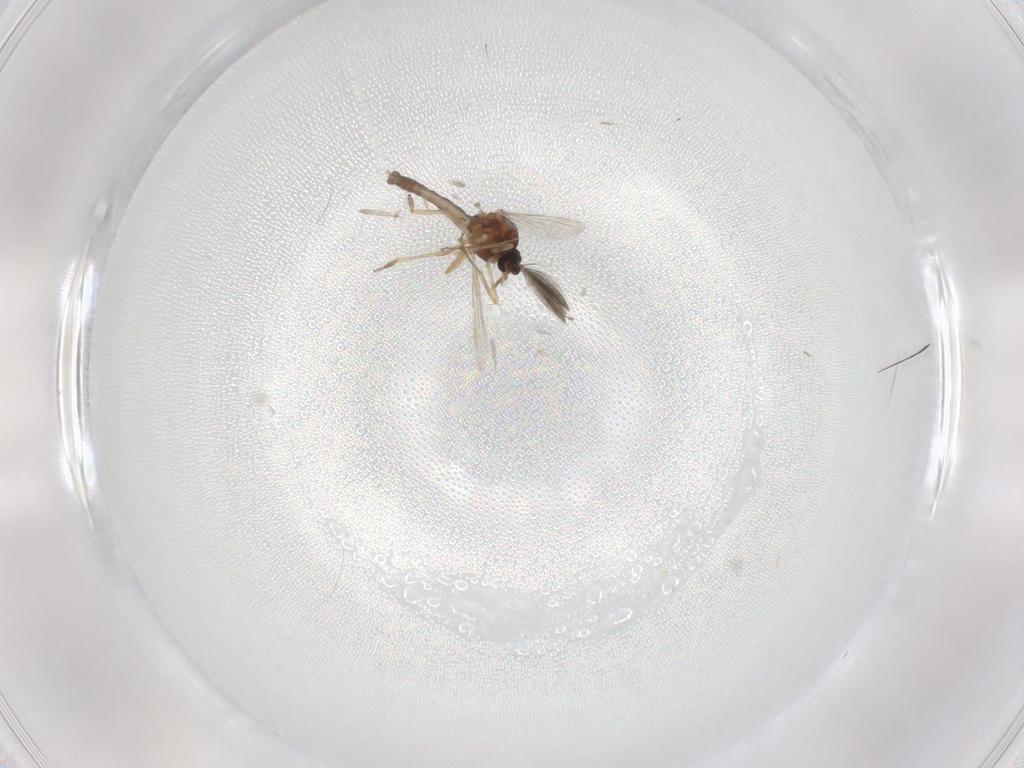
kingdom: Animalia
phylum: Arthropoda
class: Insecta
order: Diptera
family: Ceratopogonidae
